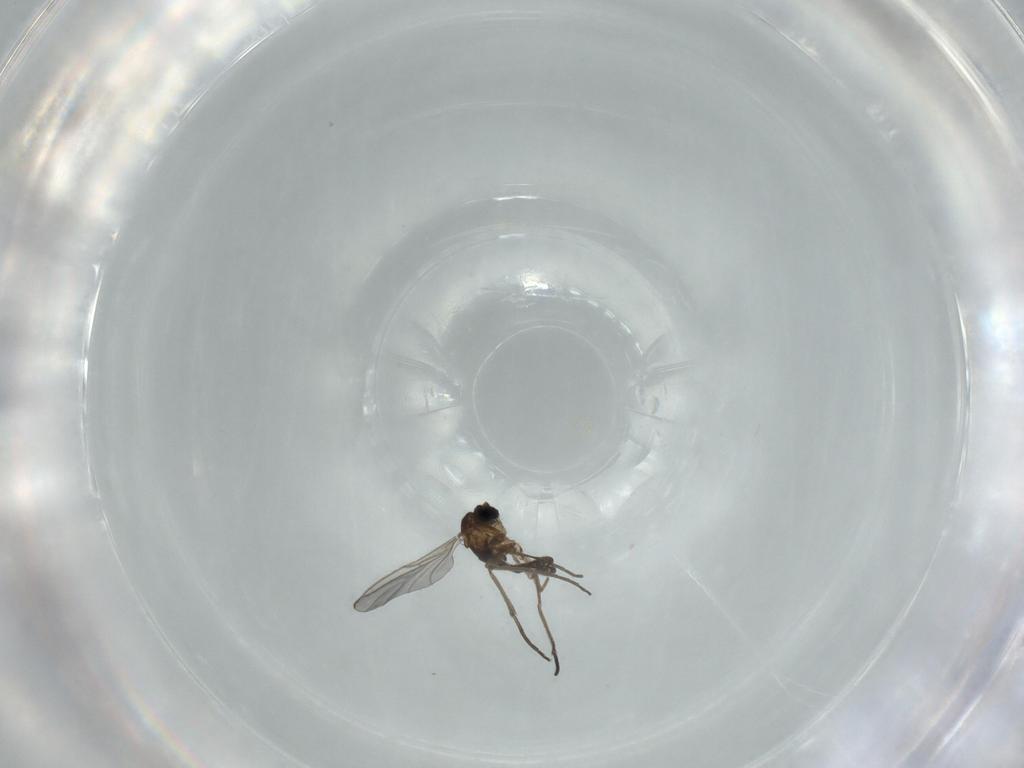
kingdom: Animalia
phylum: Arthropoda
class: Insecta
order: Diptera
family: Sciaridae
